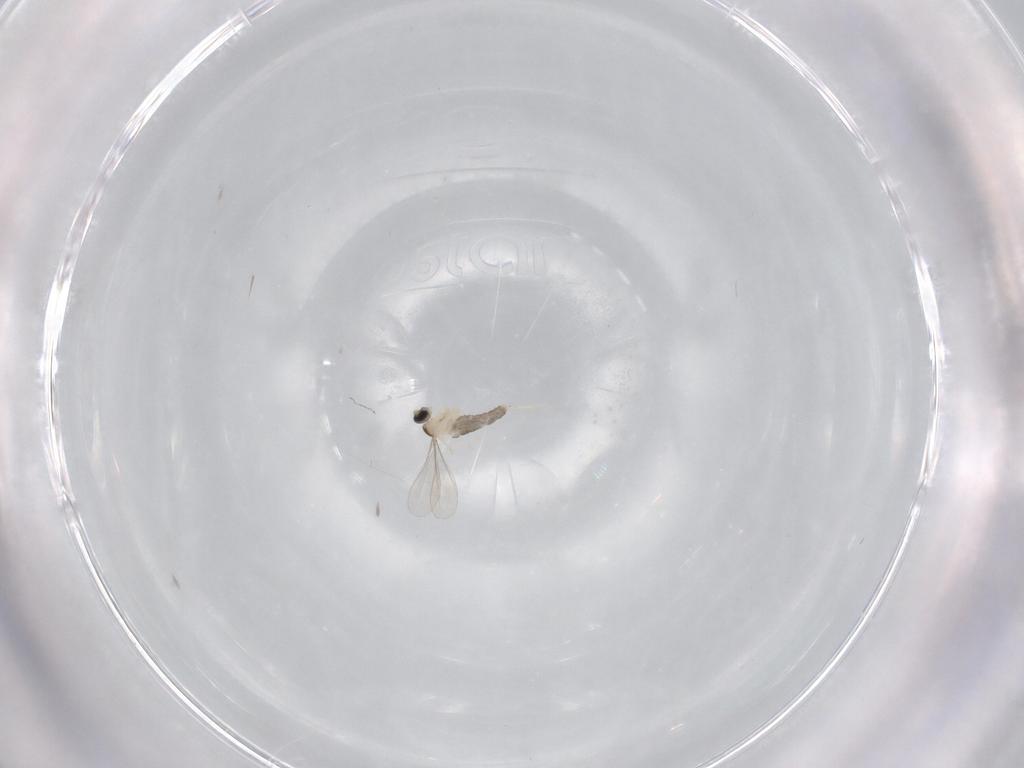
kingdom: Animalia
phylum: Arthropoda
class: Insecta
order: Diptera
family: Cecidomyiidae
